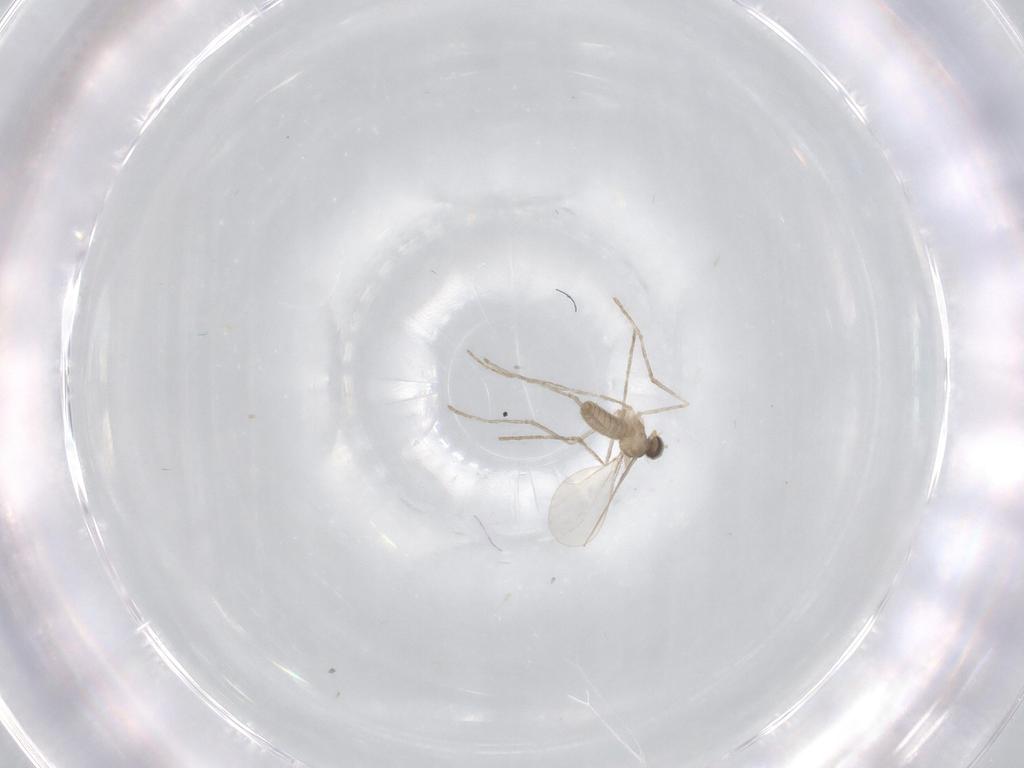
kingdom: Animalia
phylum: Arthropoda
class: Insecta
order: Diptera
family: Cecidomyiidae
